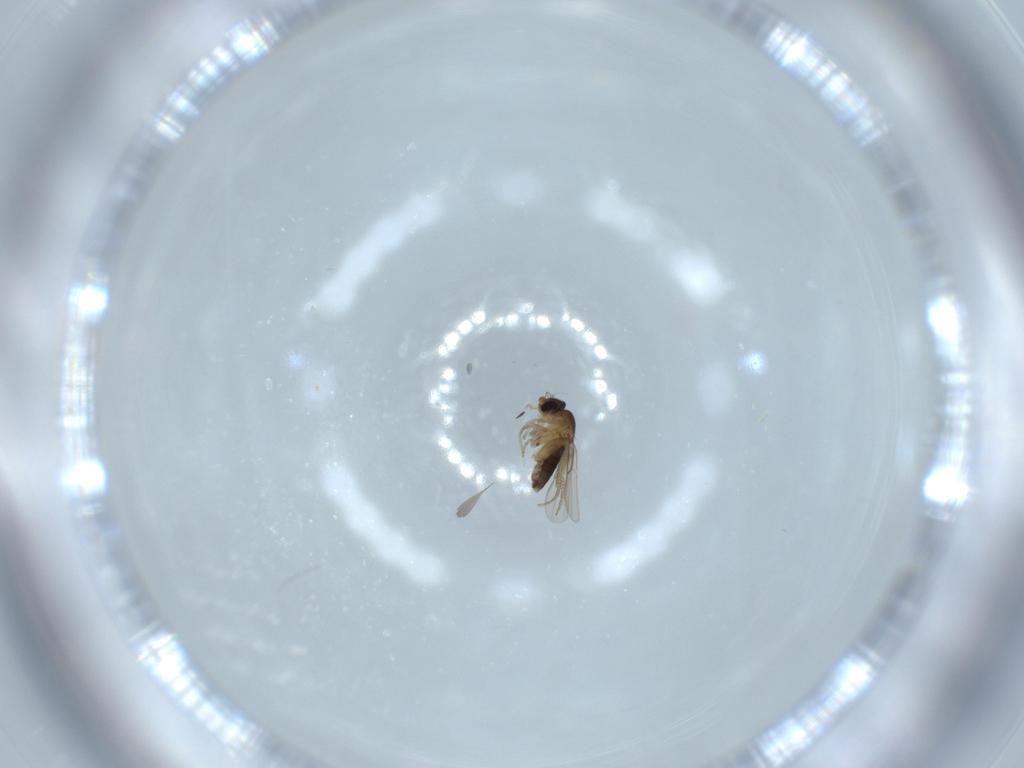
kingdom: Animalia
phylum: Arthropoda
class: Insecta
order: Diptera
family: Phoridae
